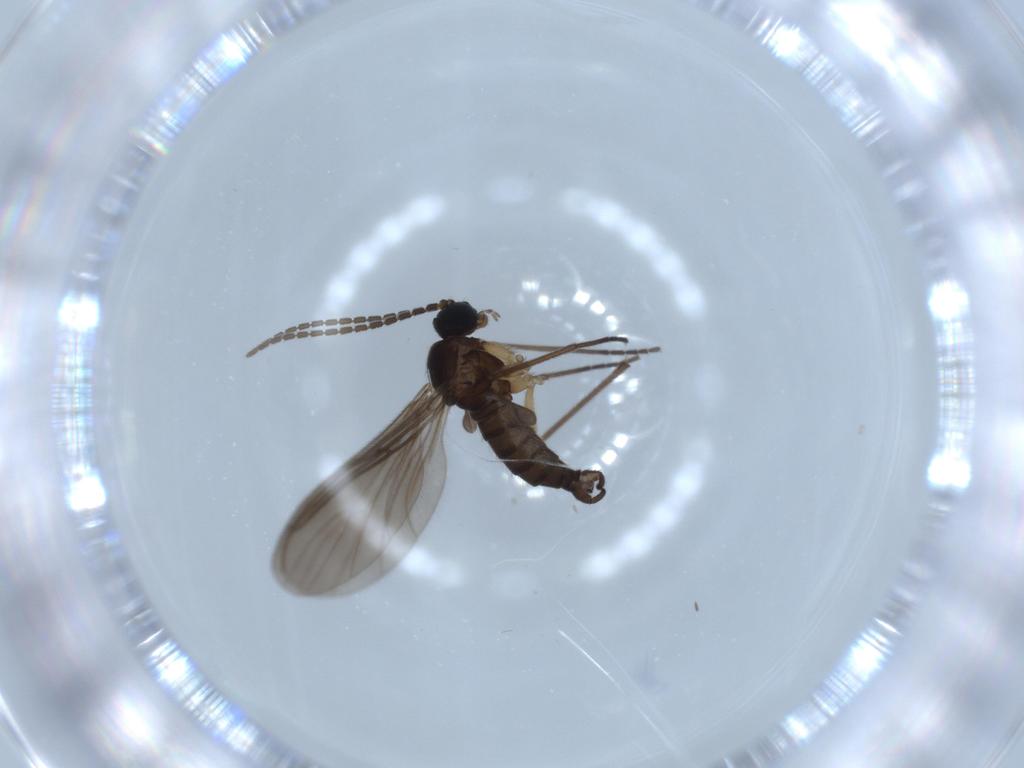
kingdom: Animalia
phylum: Arthropoda
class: Insecta
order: Diptera
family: Sciaridae
